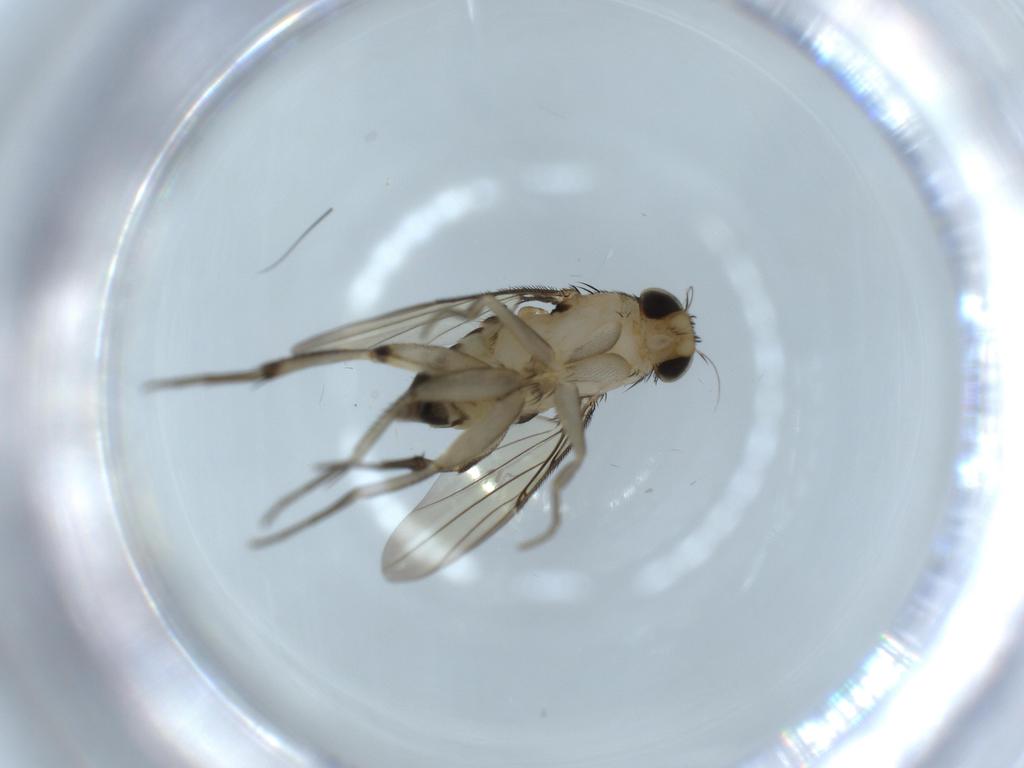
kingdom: Animalia
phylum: Arthropoda
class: Insecta
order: Diptera
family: Phoridae
